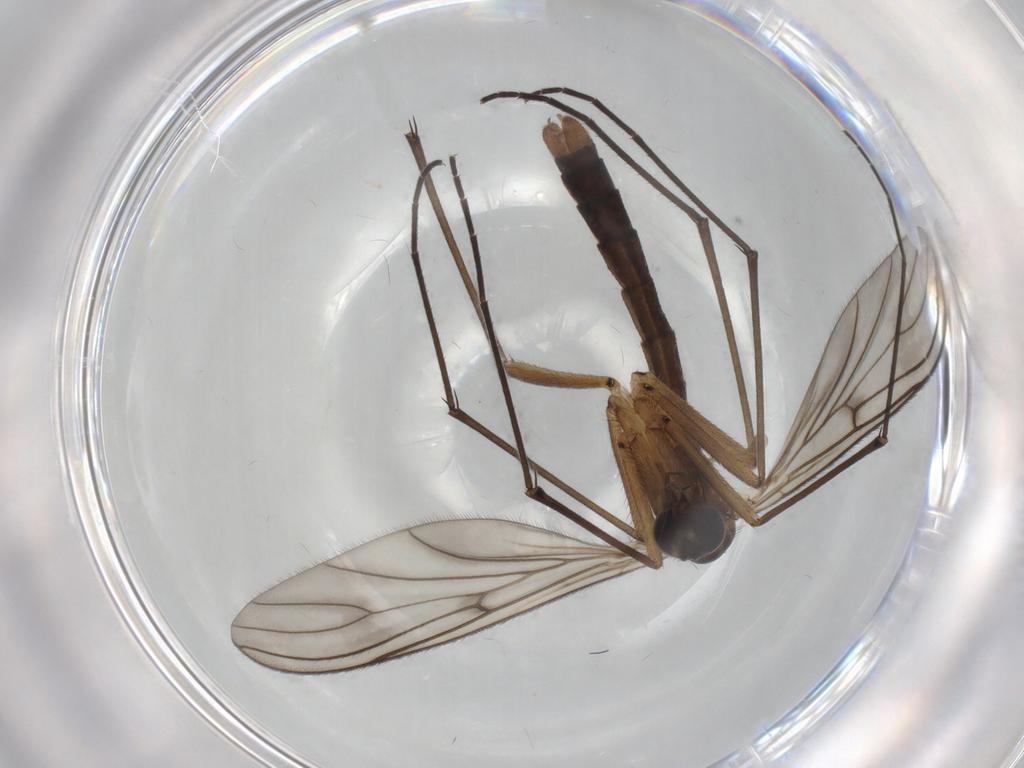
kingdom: Animalia
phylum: Arthropoda
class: Insecta
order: Diptera
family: Rangomaramidae
